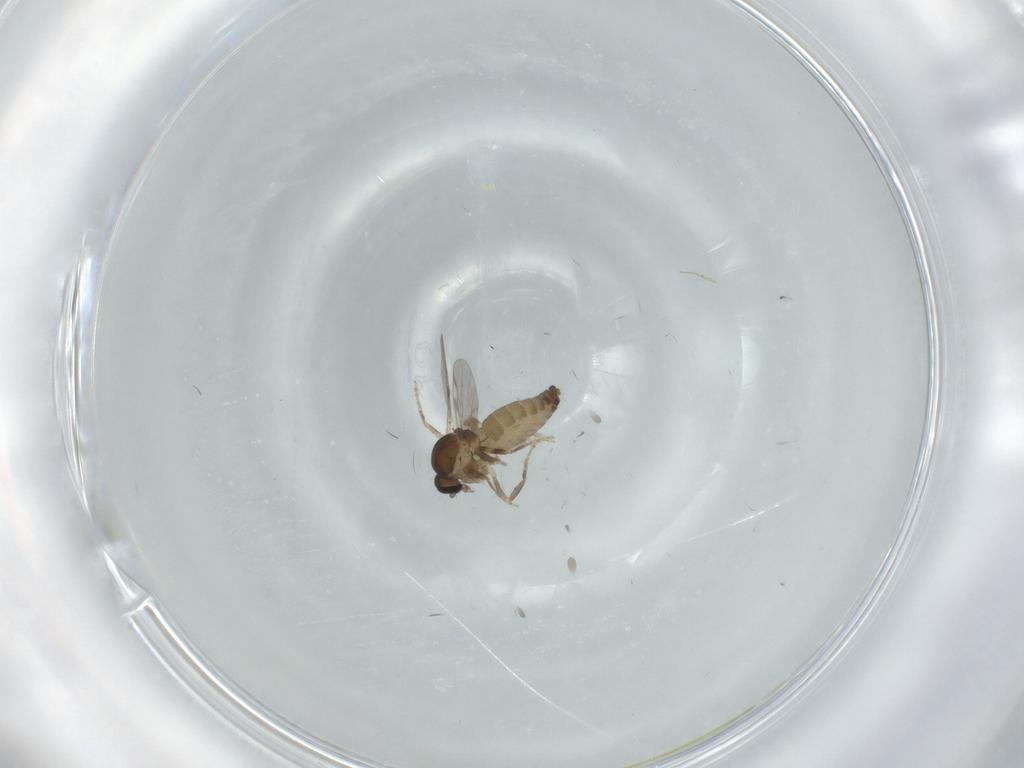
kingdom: Animalia
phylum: Arthropoda
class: Insecta
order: Diptera
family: Ceratopogonidae
